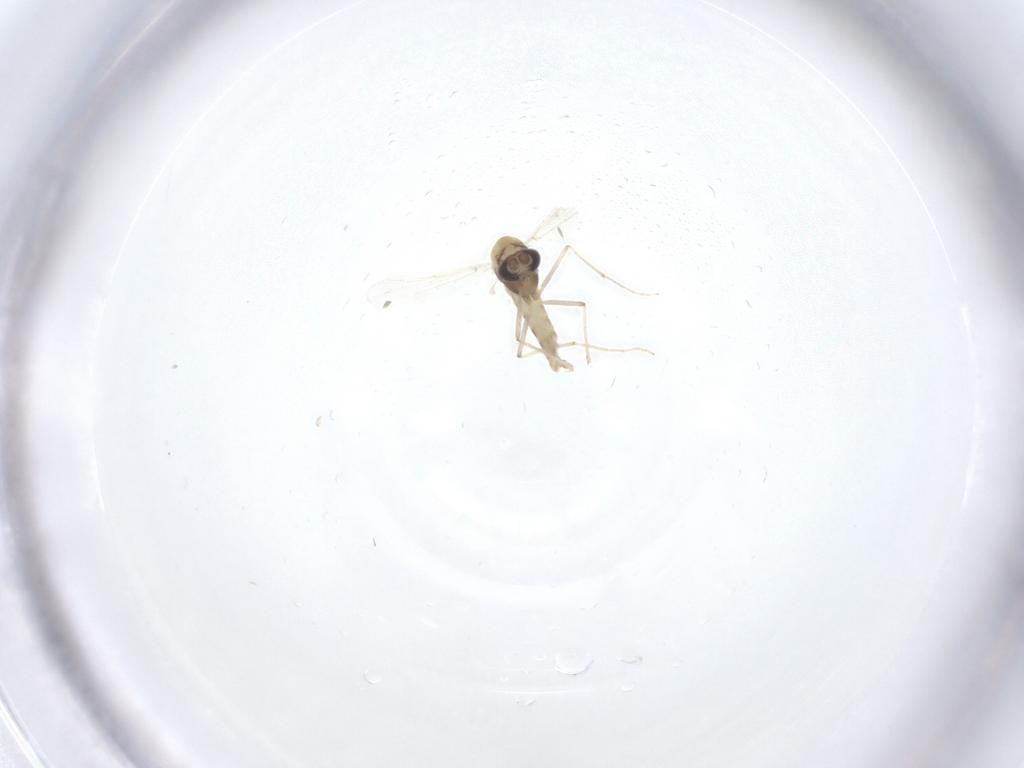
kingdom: Animalia
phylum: Arthropoda
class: Insecta
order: Diptera
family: Chironomidae
